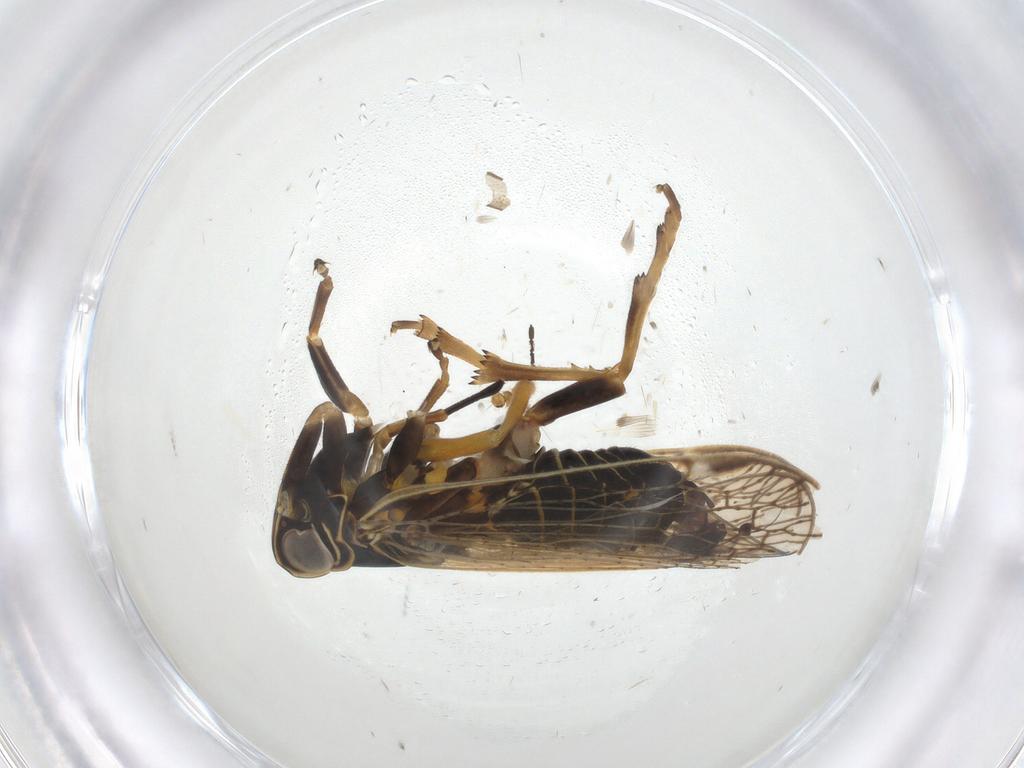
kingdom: Animalia
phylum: Arthropoda
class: Insecta
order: Hemiptera
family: Cixiidae
